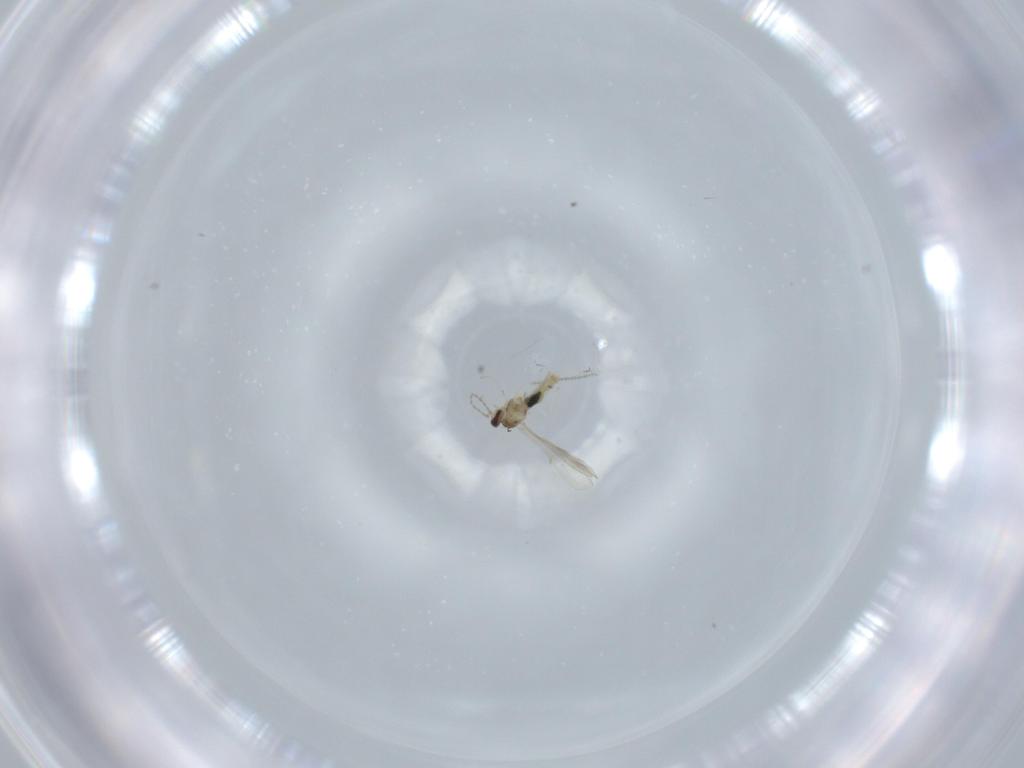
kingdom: Animalia
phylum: Arthropoda
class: Insecta
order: Diptera
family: Cecidomyiidae
